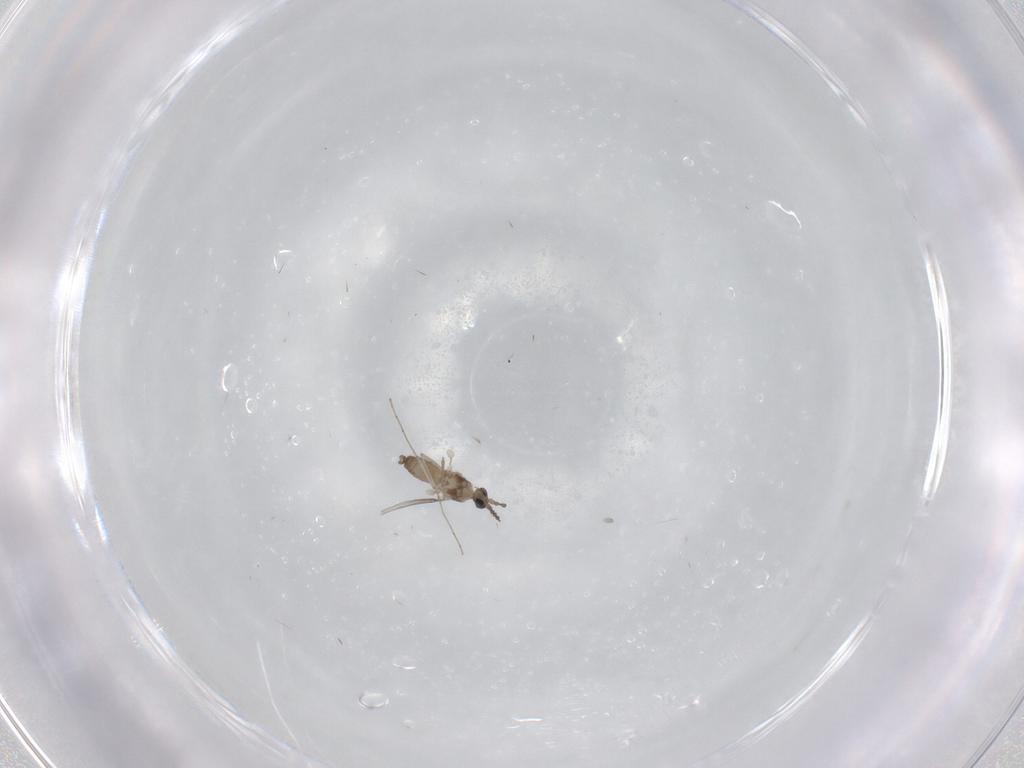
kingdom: Animalia
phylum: Arthropoda
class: Insecta
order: Diptera
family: Cecidomyiidae
